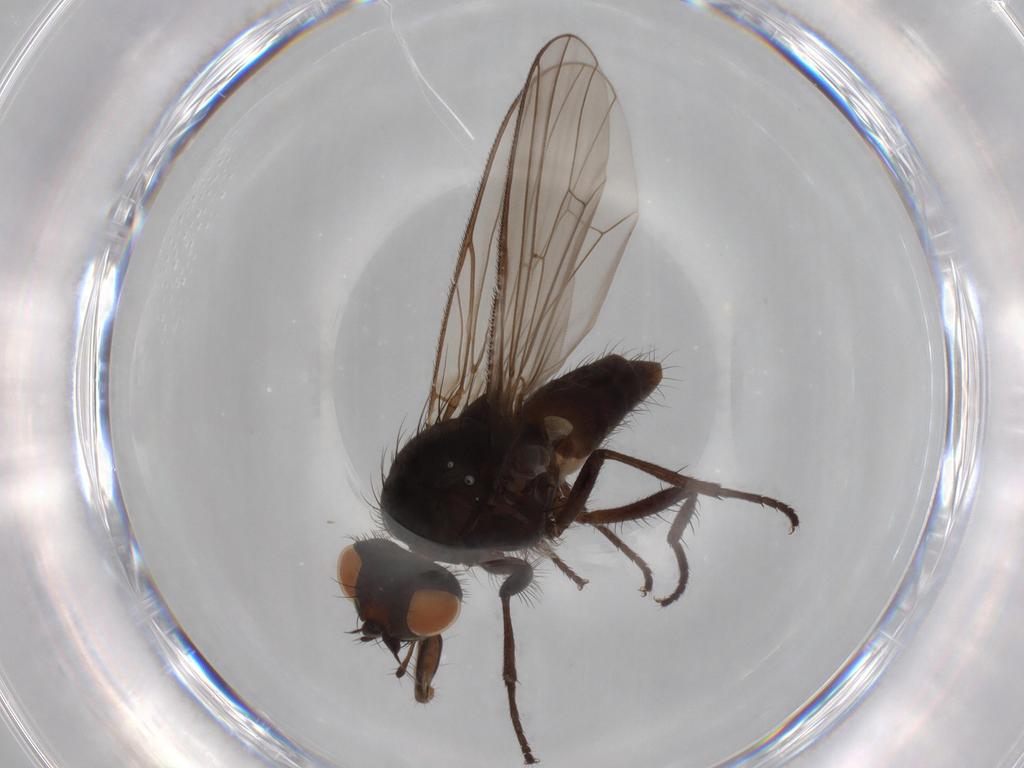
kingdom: Animalia
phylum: Arthropoda
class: Insecta
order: Diptera
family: Anthomyiidae
